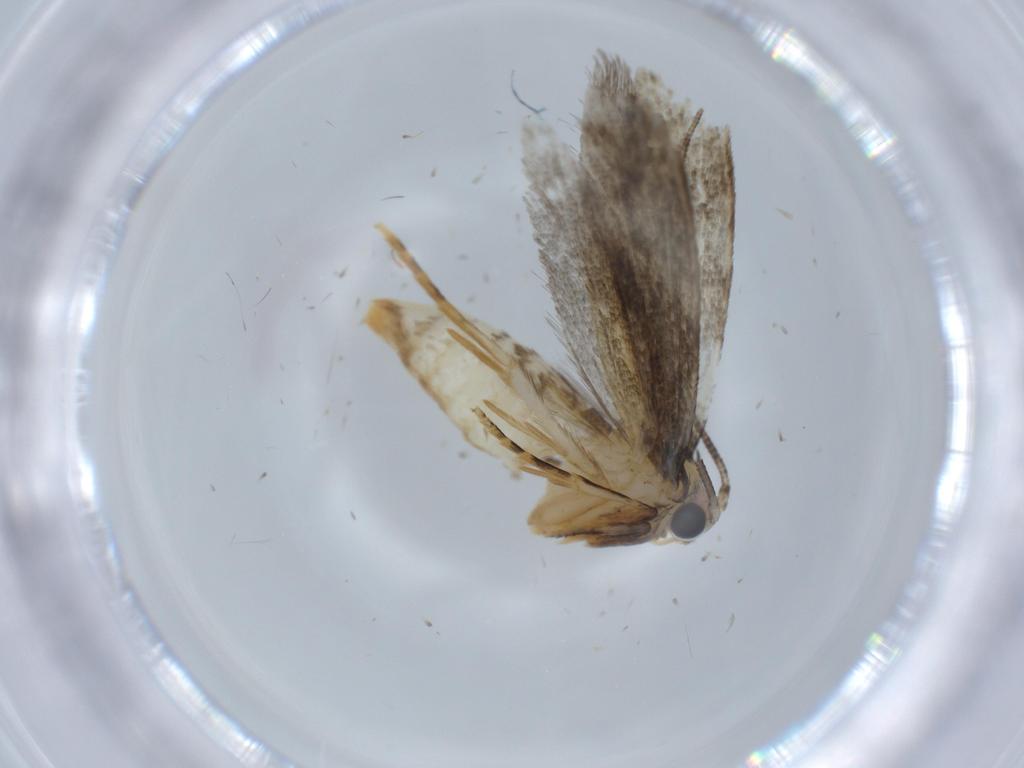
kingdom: Animalia
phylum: Arthropoda
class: Insecta
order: Lepidoptera
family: Tineidae
